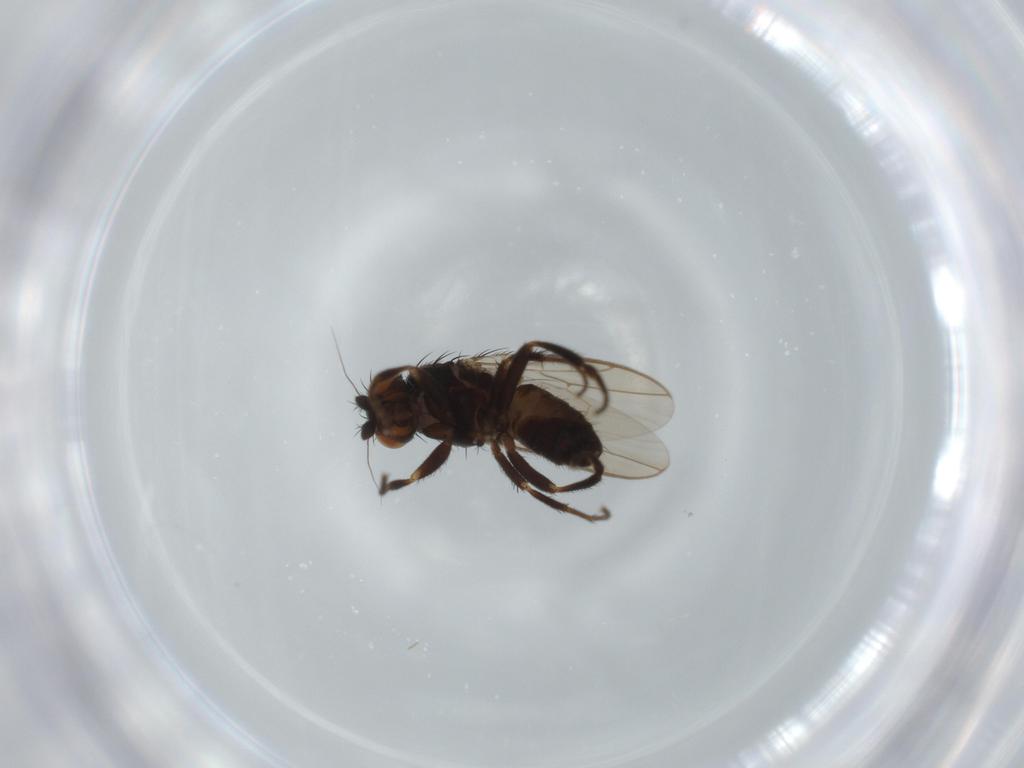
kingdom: Animalia
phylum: Arthropoda
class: Insecta
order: Diptera
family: Sphaeroceridae
